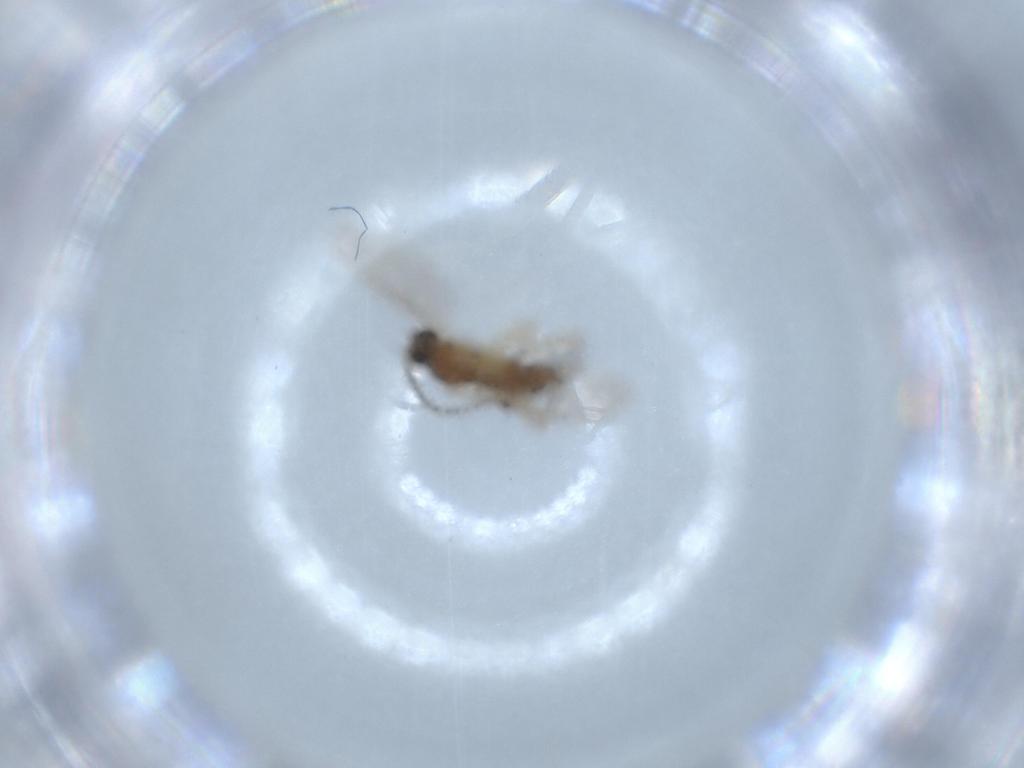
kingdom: Animalia
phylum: Arthropoda
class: Insecta
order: Diptera
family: Sciaridae
